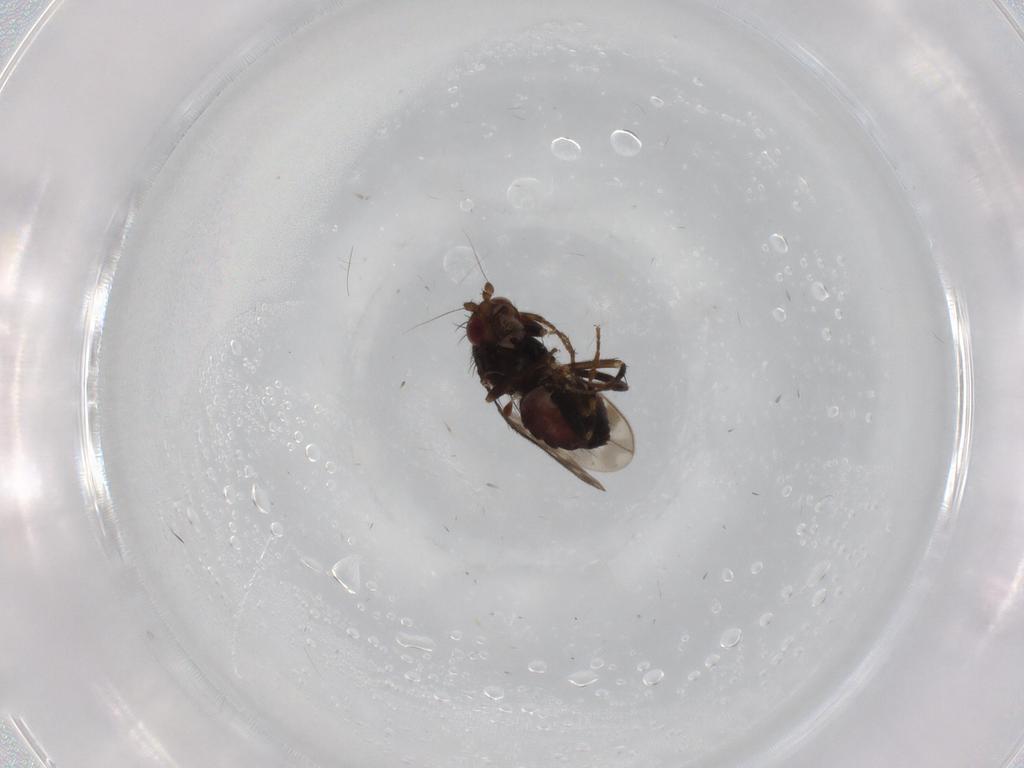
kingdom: Animalia
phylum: Arthropoda
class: Insecta
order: Diptera
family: Sphaeroceridae
